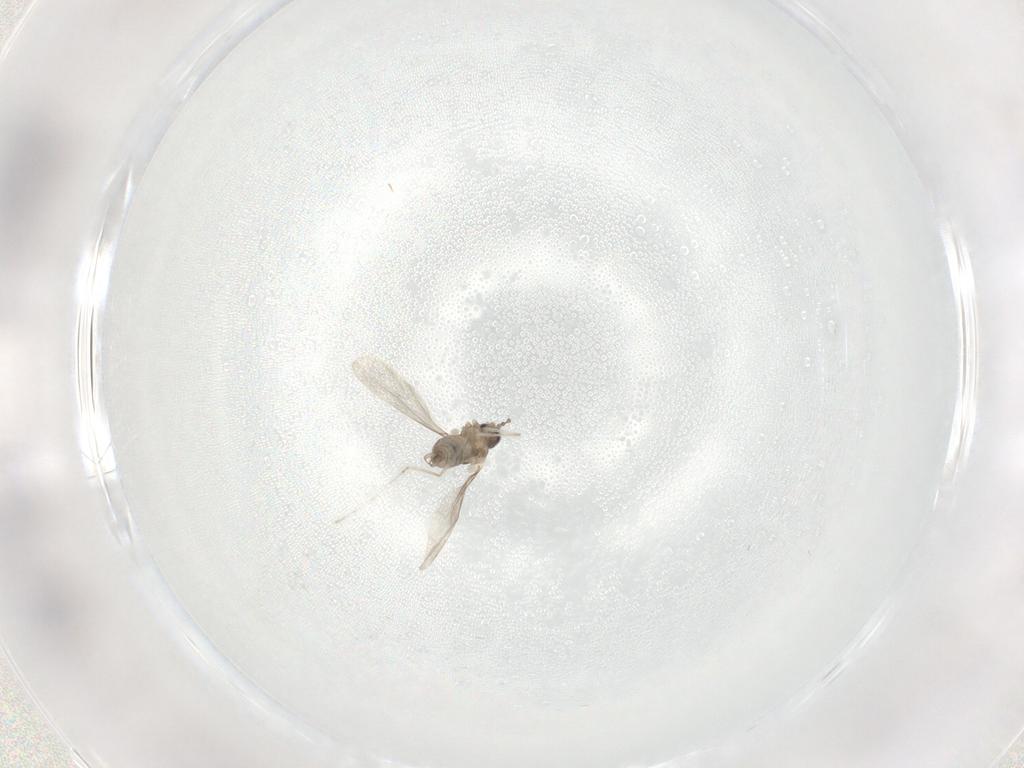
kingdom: Animalia
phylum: Arthropoda
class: Insecta
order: Diptera
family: Cecidomyiidae
